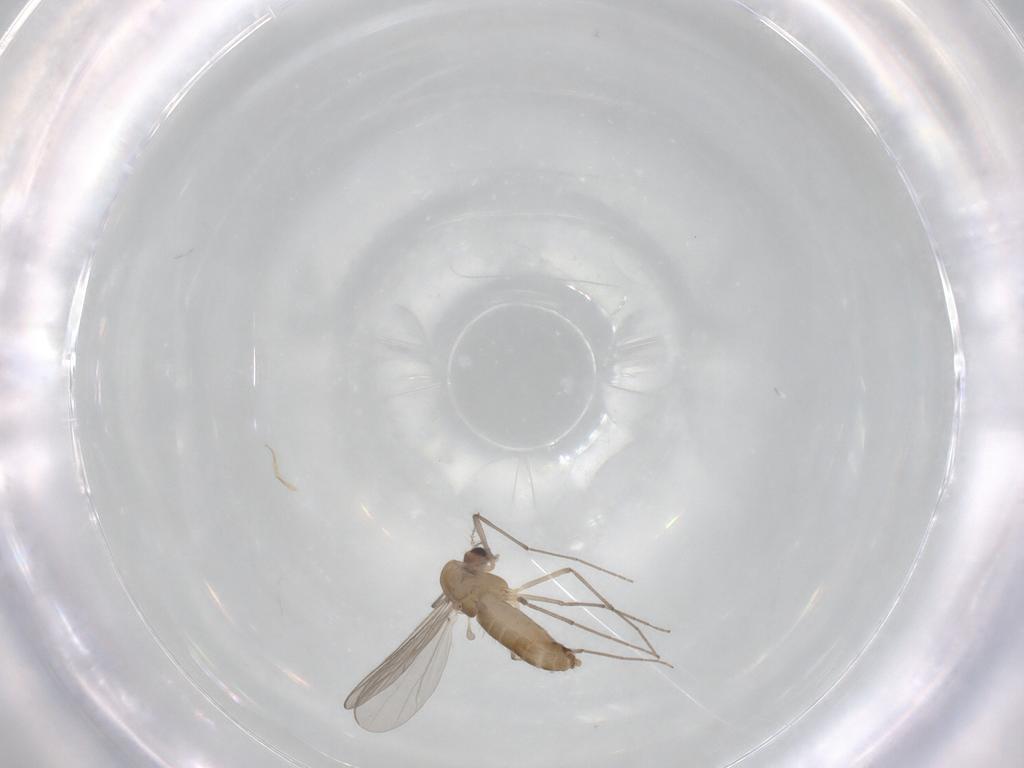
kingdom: Animalia
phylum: Arthropoda
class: Insecta
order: Diptera
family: Chironomidae
